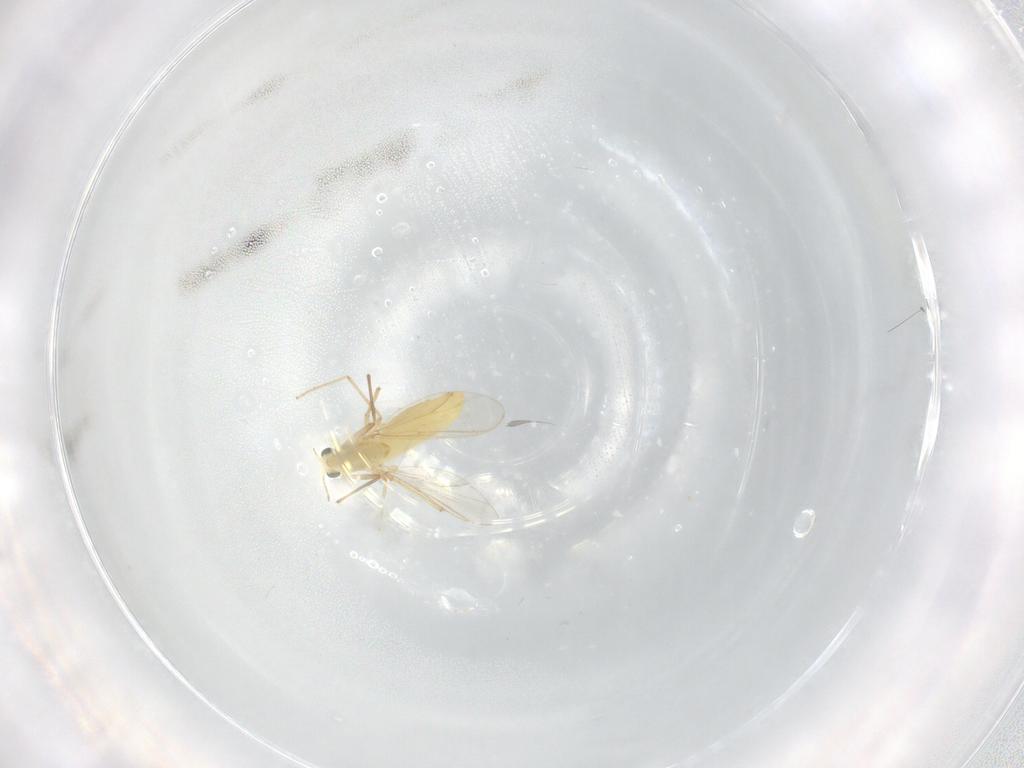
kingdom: Animalia
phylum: Arthropoda
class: Insecta
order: Diptera
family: Chironomidae
